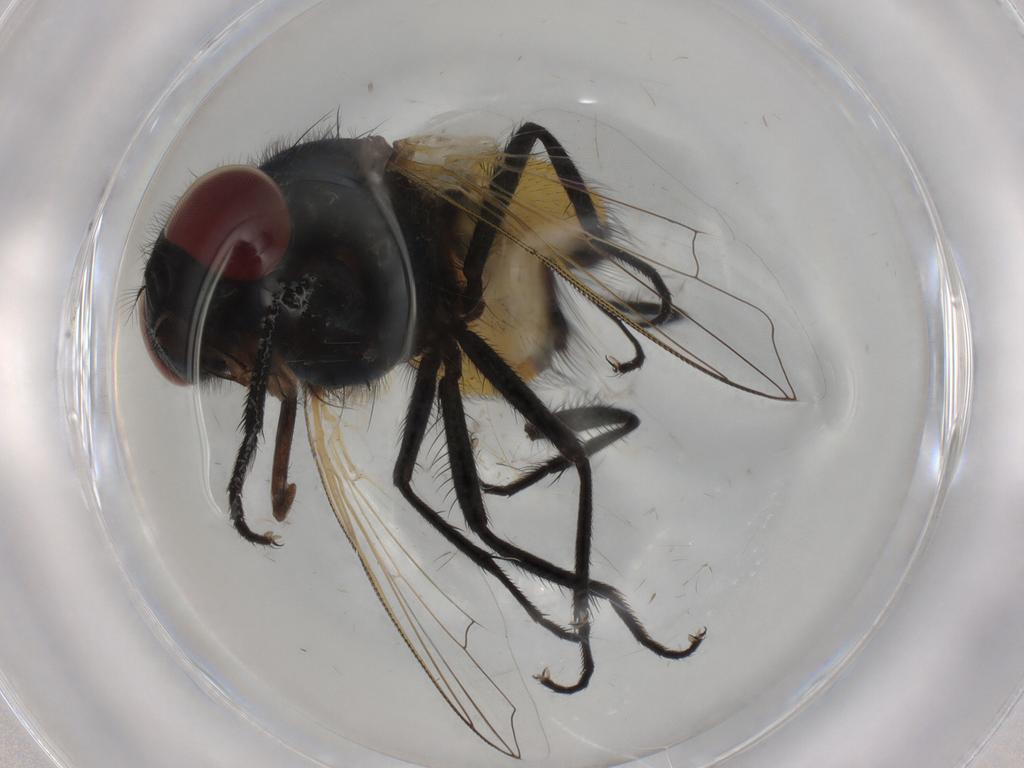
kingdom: Animalia
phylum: Arthropoda
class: Insecta
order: Diptera
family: Muscidae
